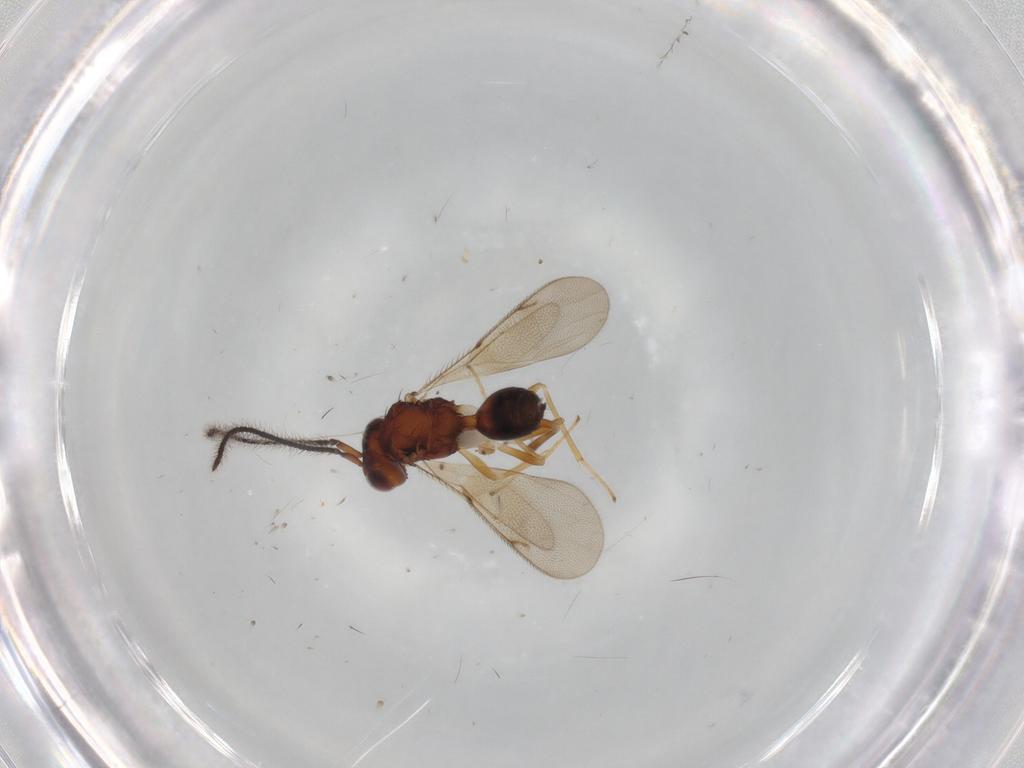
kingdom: Animalia
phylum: Arthropoda
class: Insecta
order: Hymenoptera
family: Diparidae
